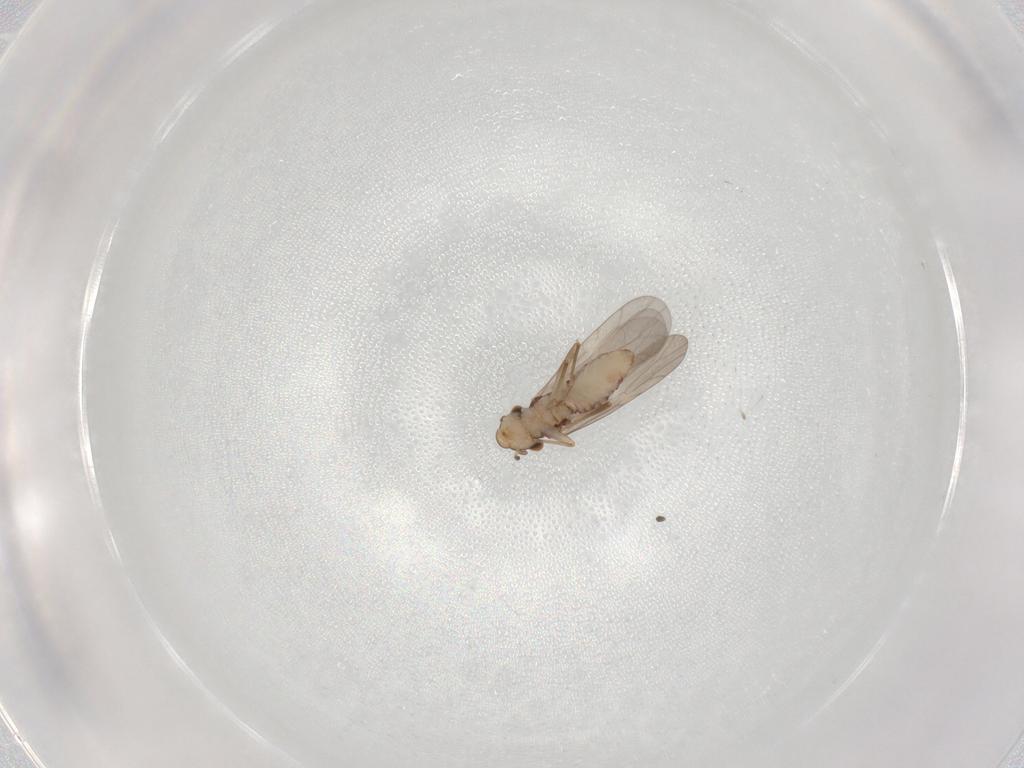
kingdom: Animalia
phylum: Arthropoda
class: Insecta
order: Psocodea
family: Lepidopsocidae
